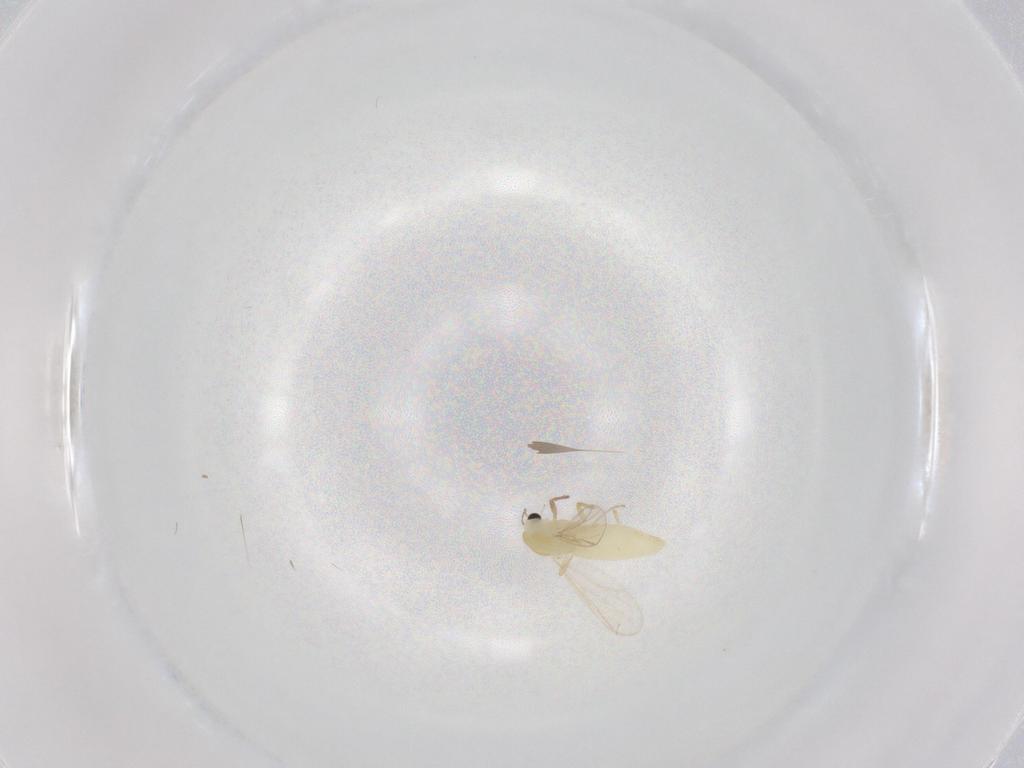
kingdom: Animalia
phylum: Arthropoda
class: Insecta
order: Diptera
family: Chironomidae
